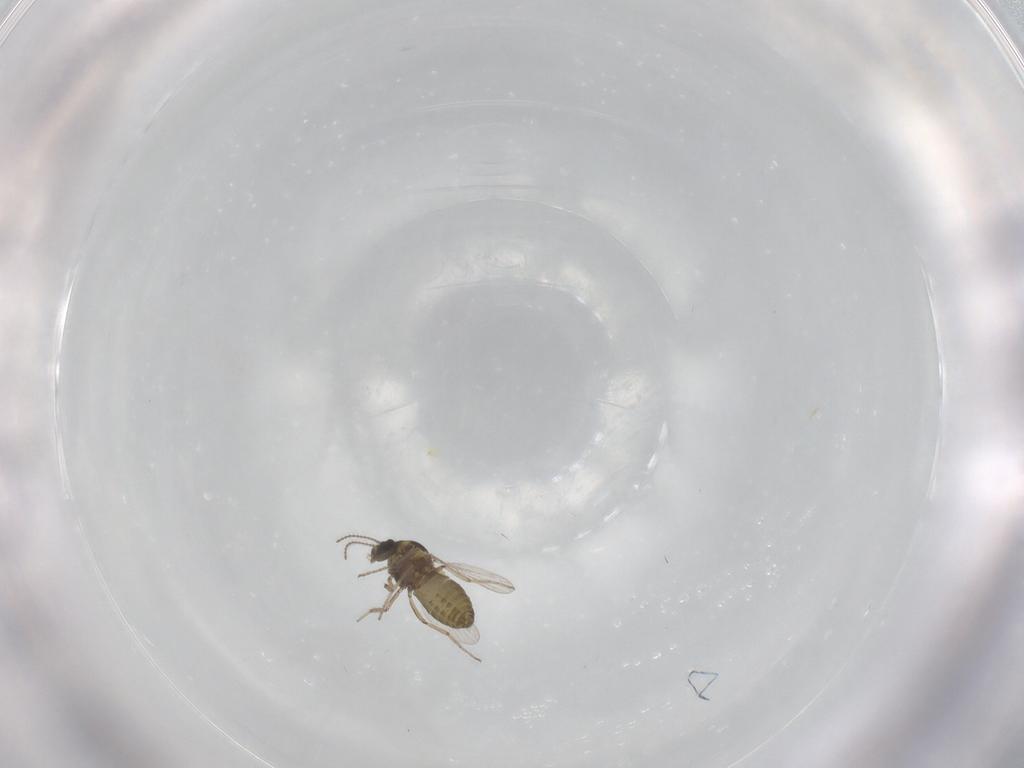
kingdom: Animalia
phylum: Arthropoda
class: Insecta
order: Diptera
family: Ceratopogonidae
